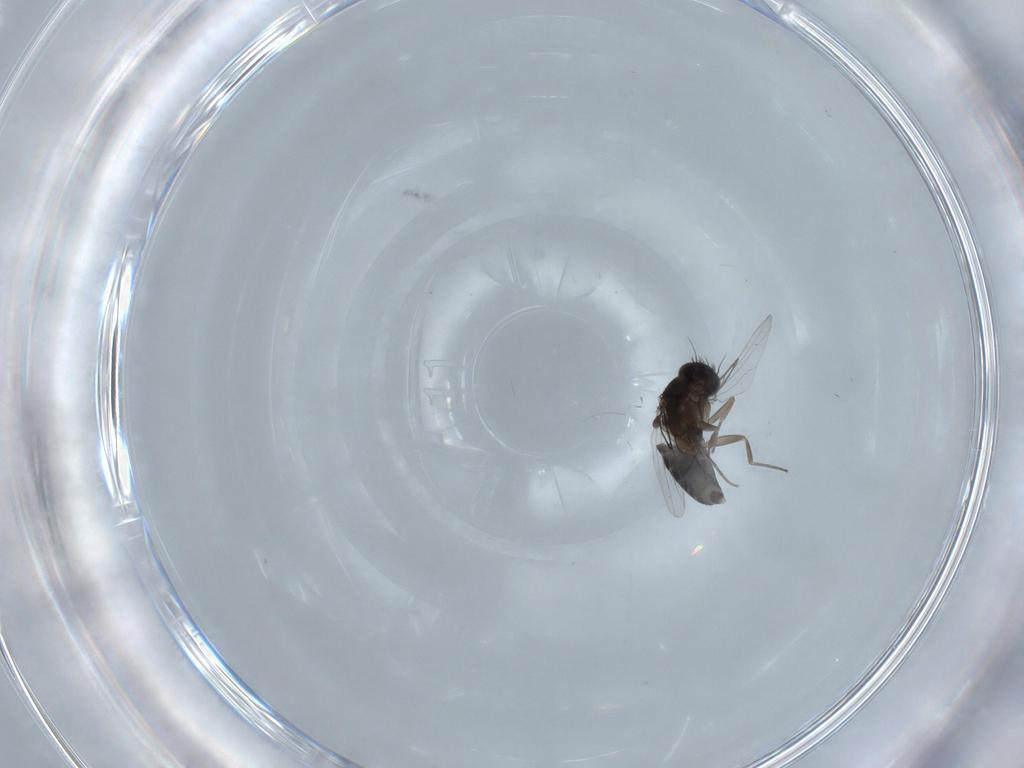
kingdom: Animalia
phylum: Arthropoda
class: Insecta
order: Diptera
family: Phoridae
